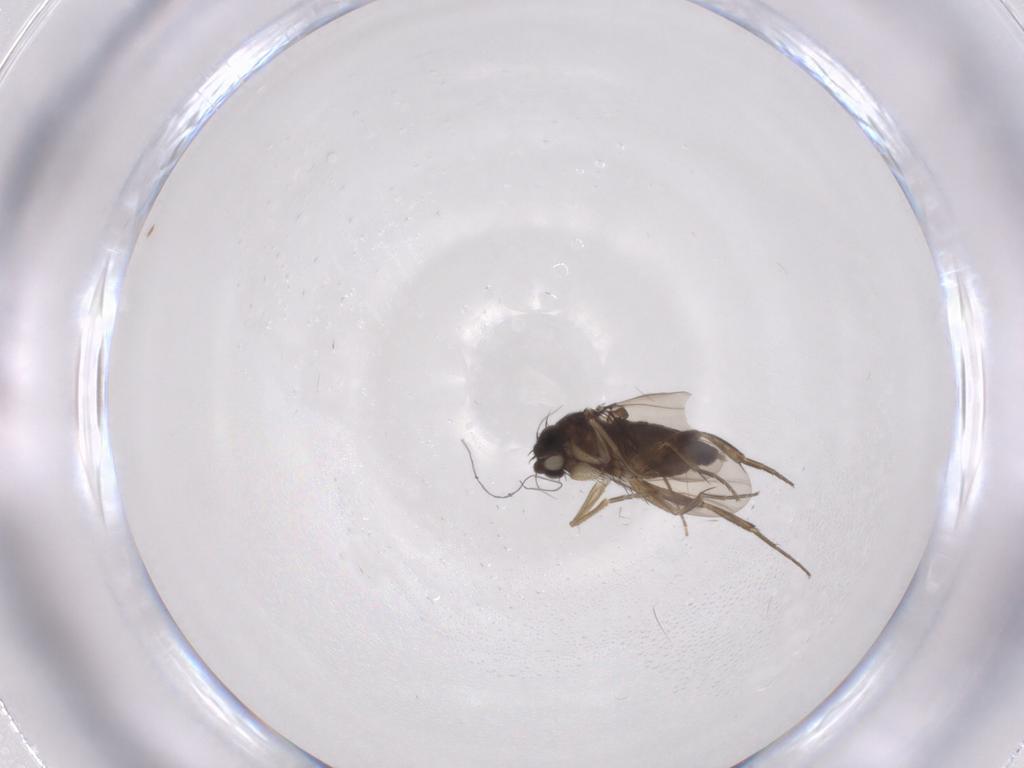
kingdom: Animalia
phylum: Arthropoda
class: Insecta
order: Diptera
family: Phoridae
